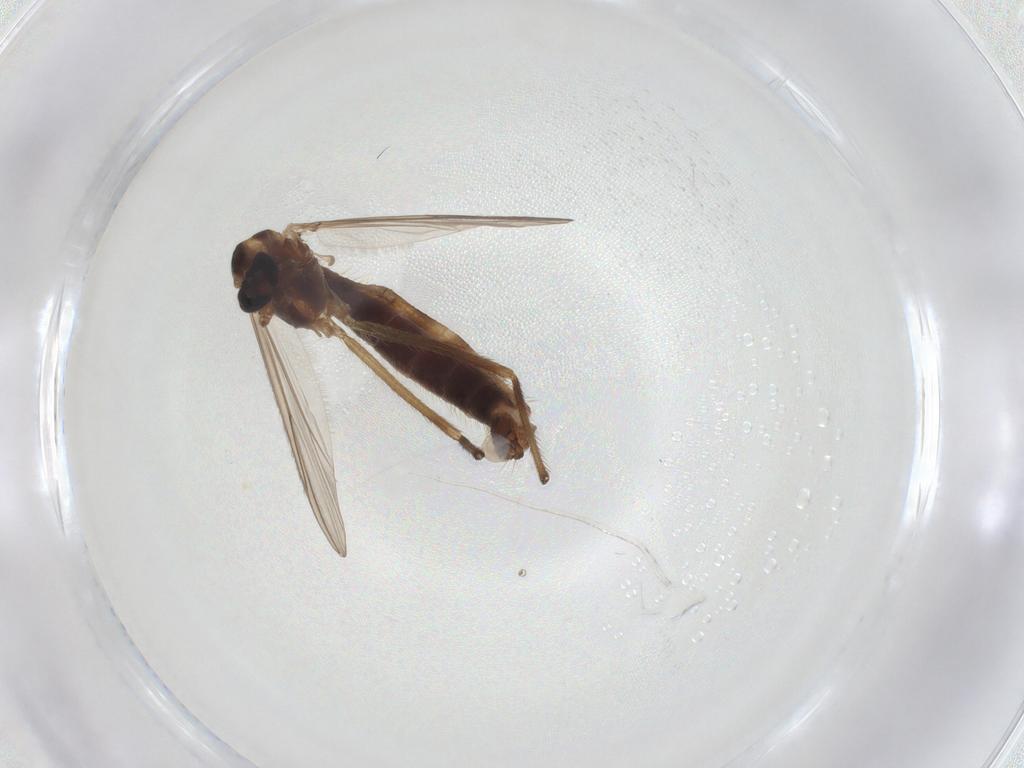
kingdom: Animalia
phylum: Arthropoda
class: Insecta
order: Diptera
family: Chironomidae
